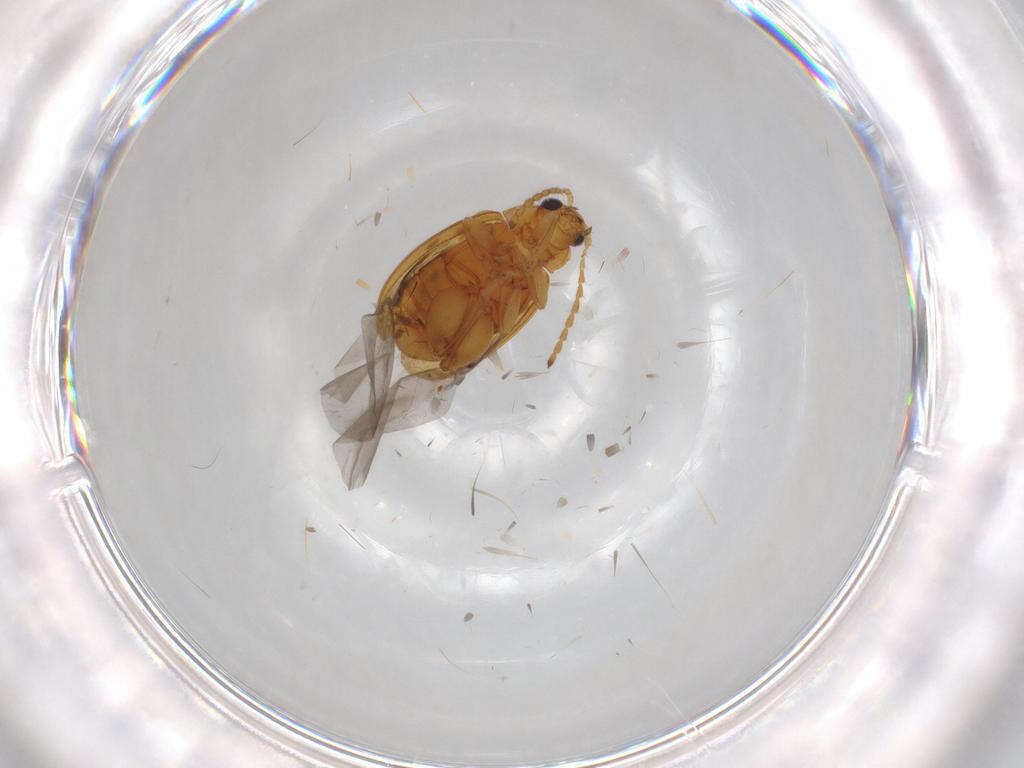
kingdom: Animalia
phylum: Arthropoda
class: Insecta
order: Coleoptera
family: Chrysomelidae
